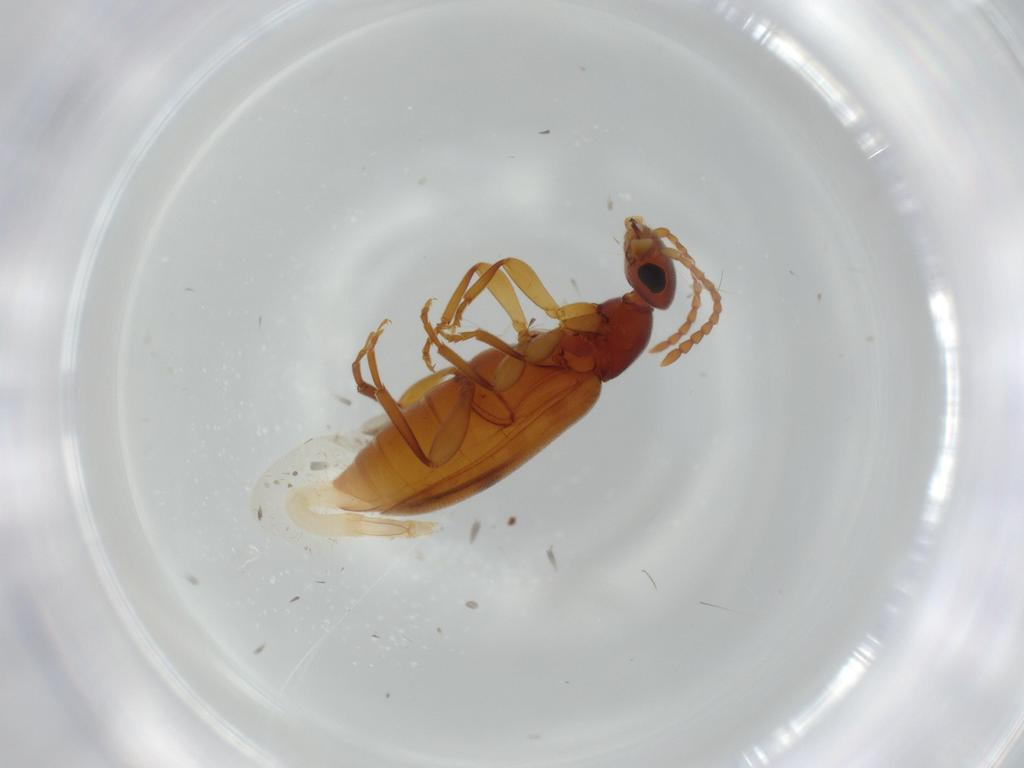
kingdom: Animalia
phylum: Arthropoda
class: Insecta
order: Coleoptera
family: Anthicidae
